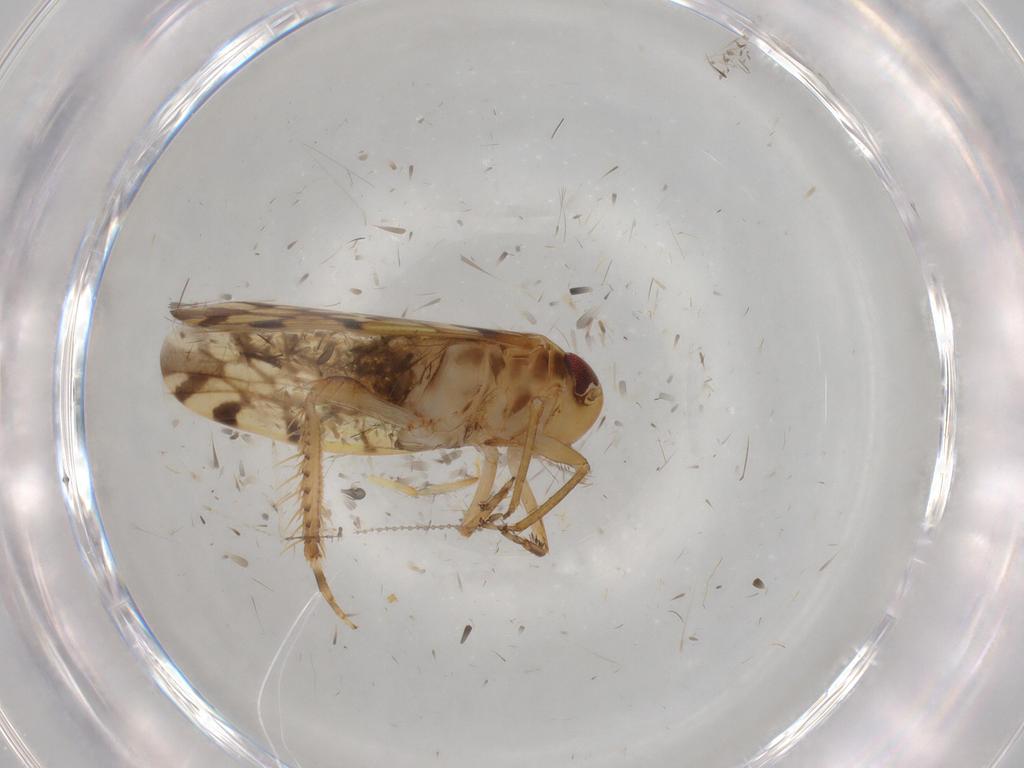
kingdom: Animalia
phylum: Arthropoda
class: Insecta
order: Hemiptera
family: Cicadellidae
